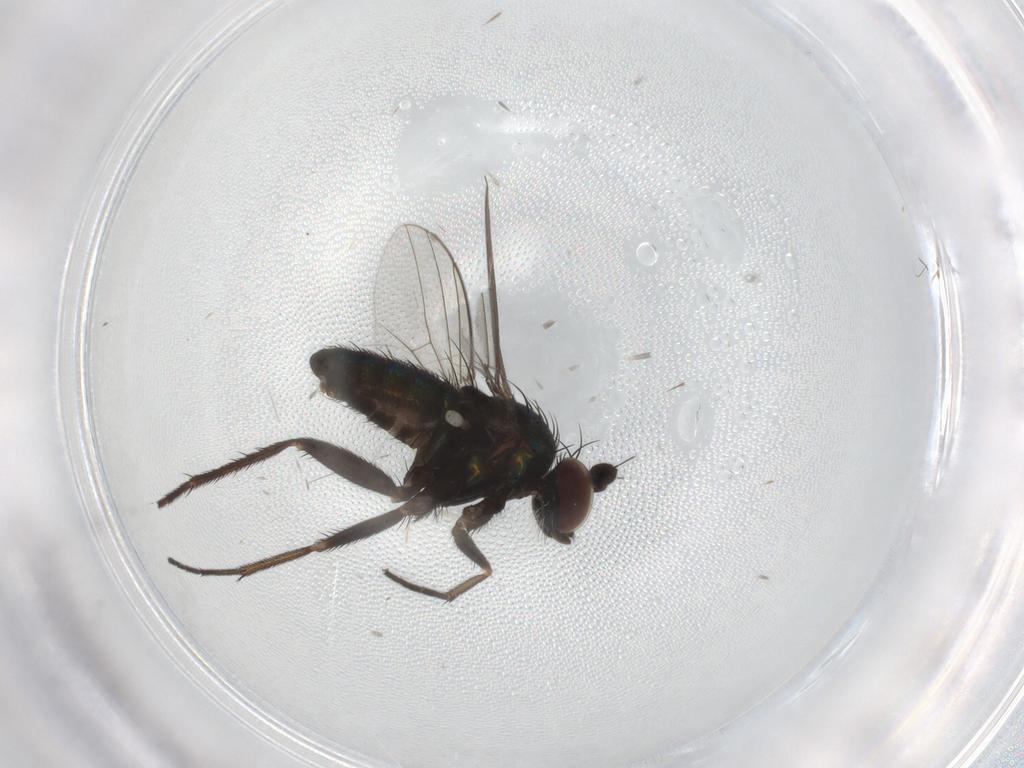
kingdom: Animalia
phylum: Arthropoda
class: Insecta
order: Diptera
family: Dolichopodidae
